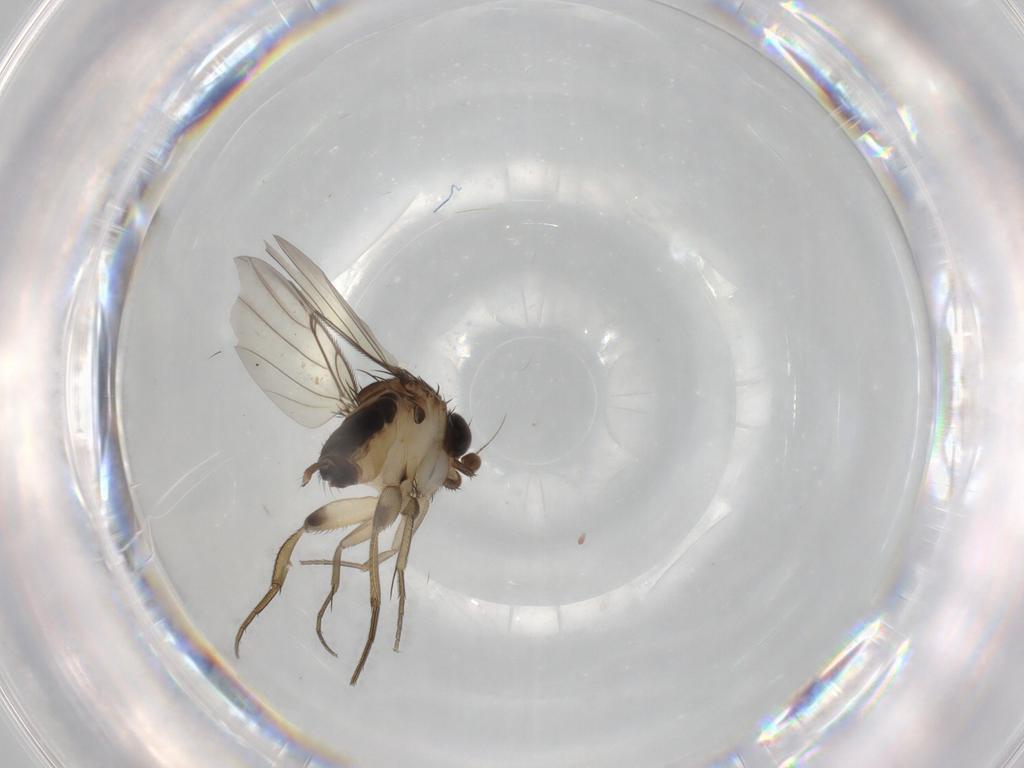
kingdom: Animalia
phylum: Arthropoda
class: Insecta
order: Diptera
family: Phoridae
